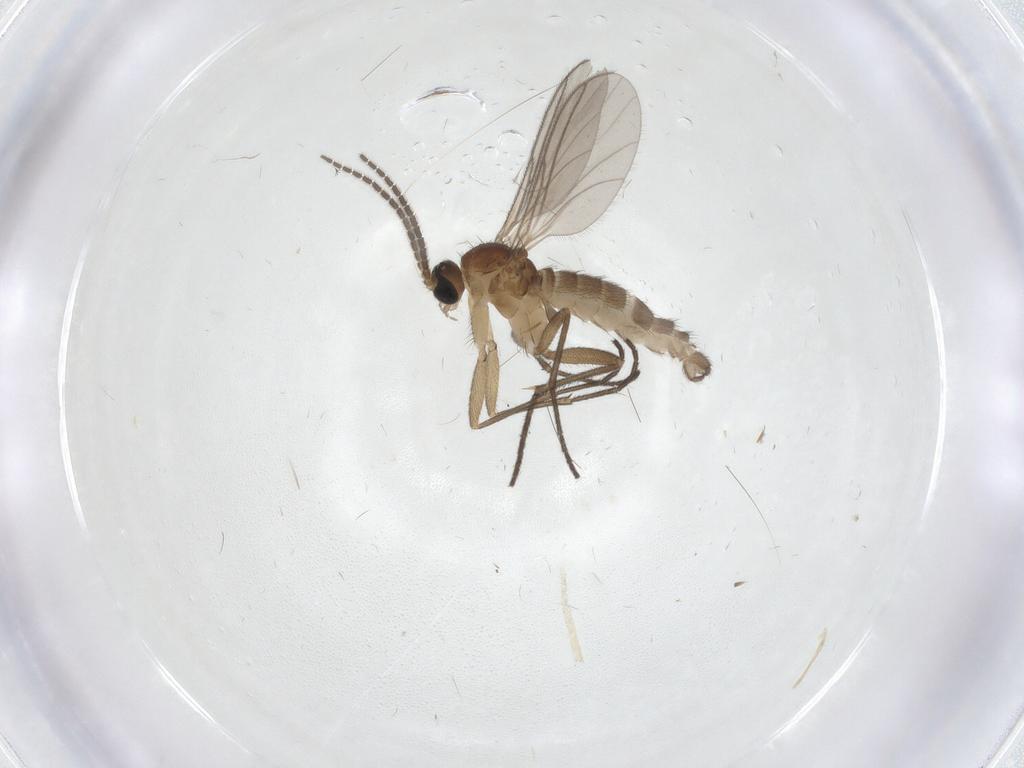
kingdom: Animalia
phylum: Arthropoda
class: Insecta
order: Diptera
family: Sciaridae
